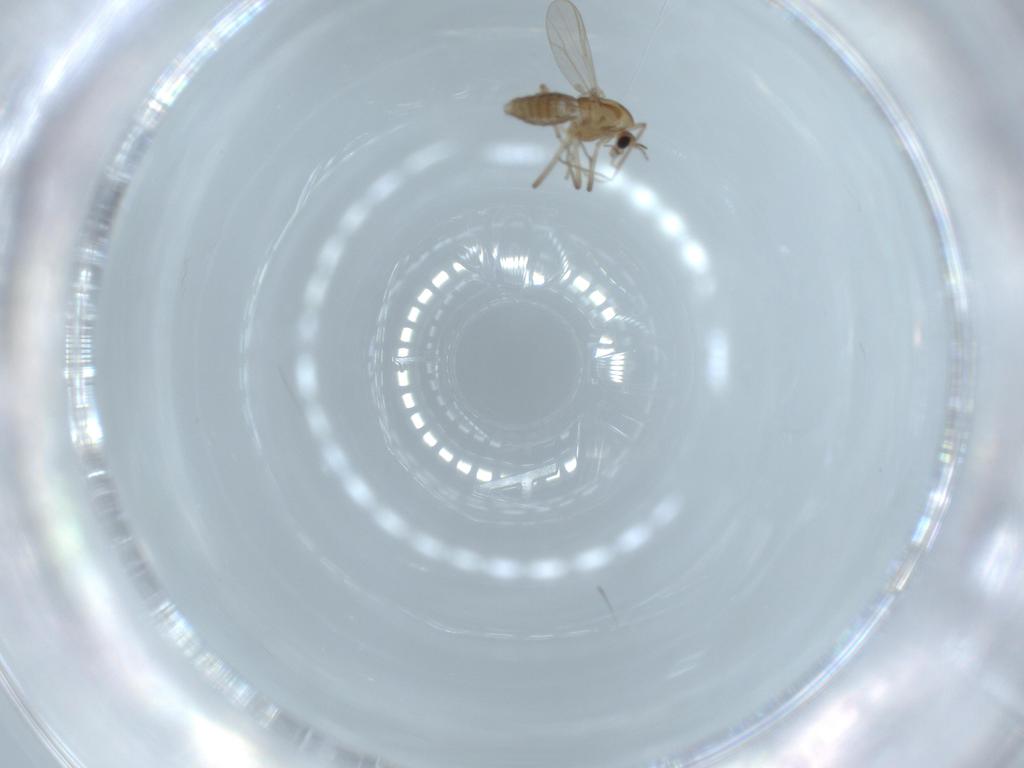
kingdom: Animalia
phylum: Arthropoda
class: Insecta
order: Diptera
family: Chironomidae
